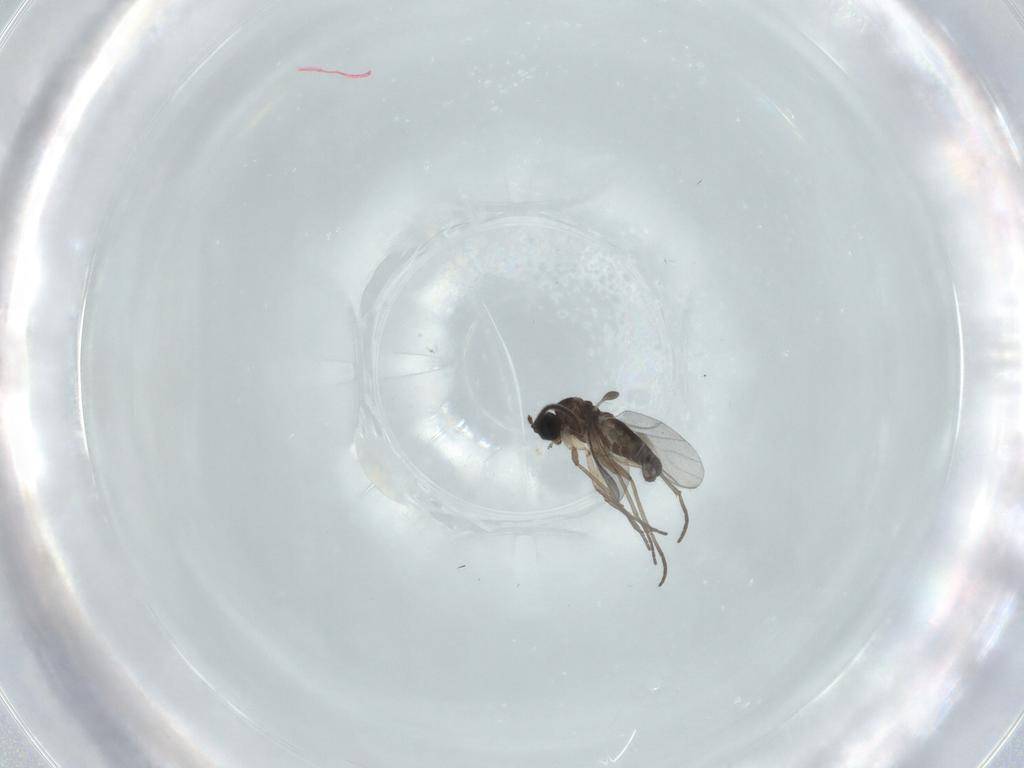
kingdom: Animalia
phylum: Arthropoda
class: Insecta
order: Diptera
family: Sciaridae
